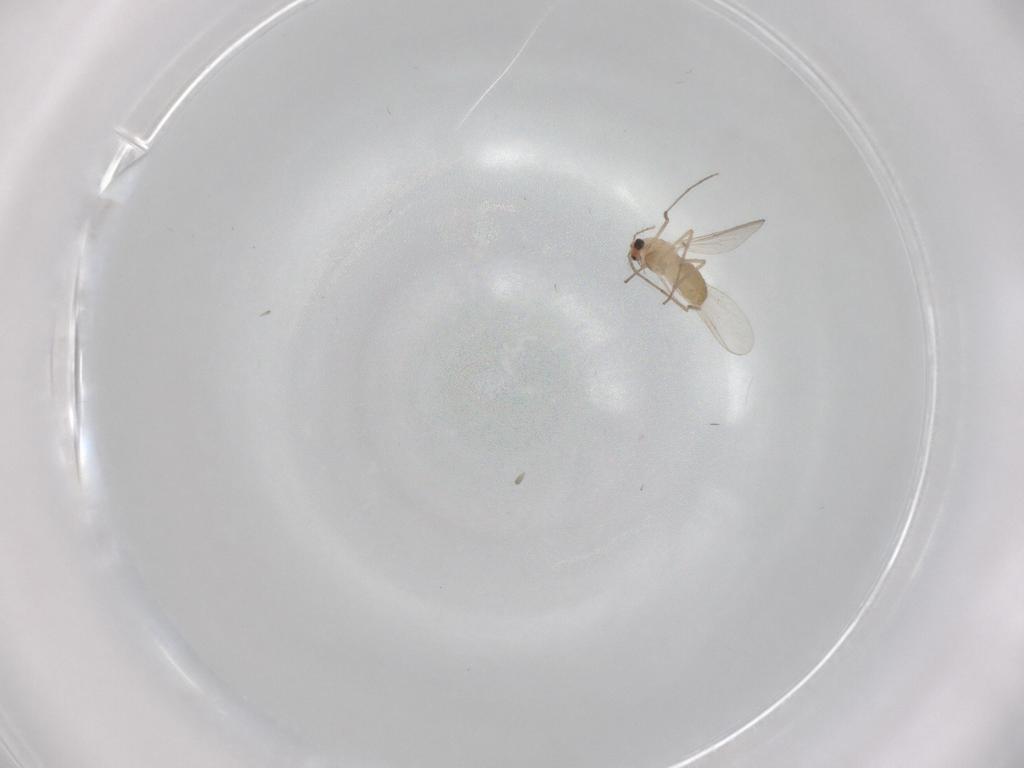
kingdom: Animalia
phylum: Arthropoda
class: Insecta
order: Diptera
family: Chironomidae
